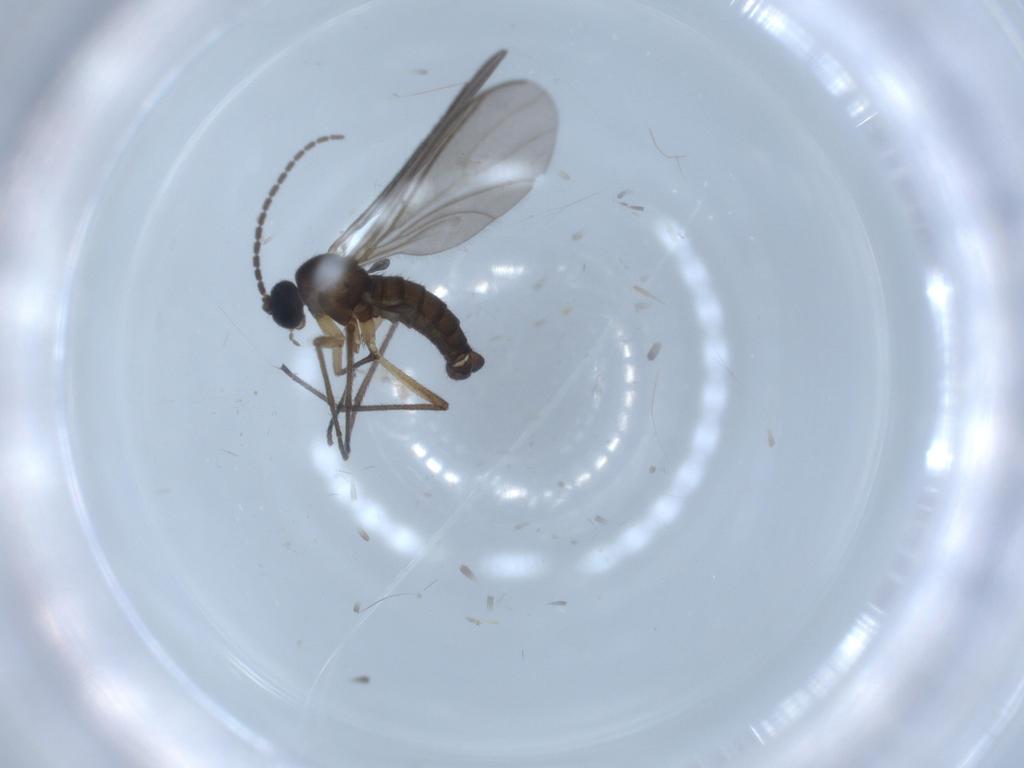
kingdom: Animalia
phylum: Arthropoda
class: Insecta
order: Diptera
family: Sciaridae
